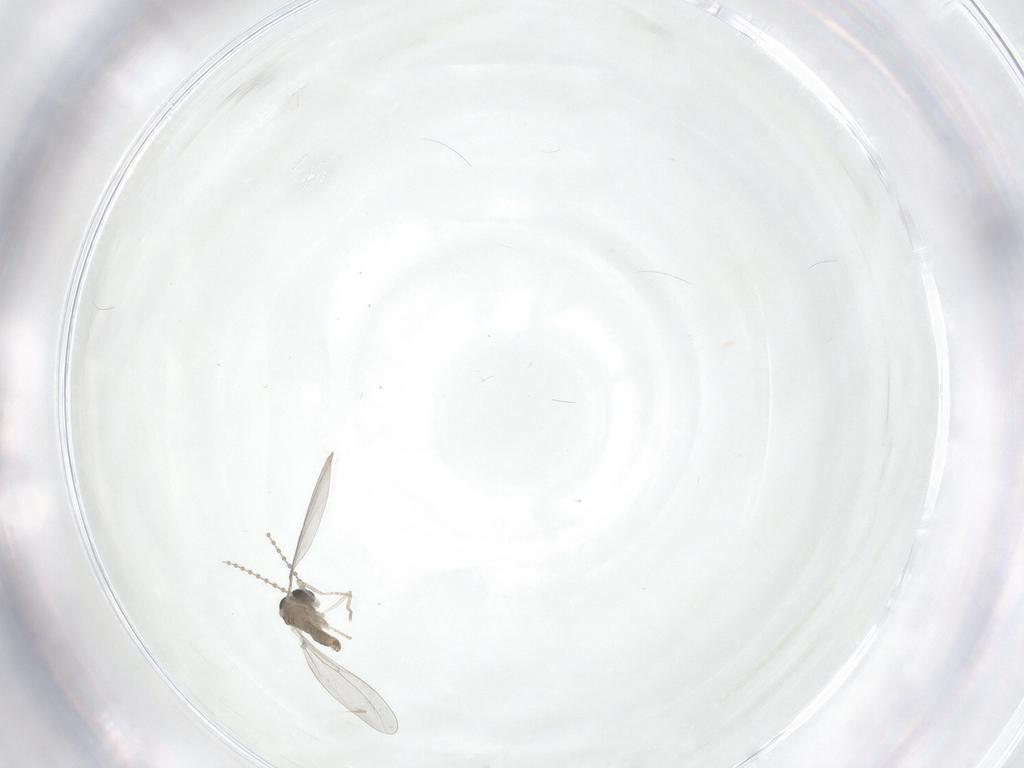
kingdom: Animalia
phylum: Arthropoda
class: Insecta
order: Diptera
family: Cecidomyiidae
